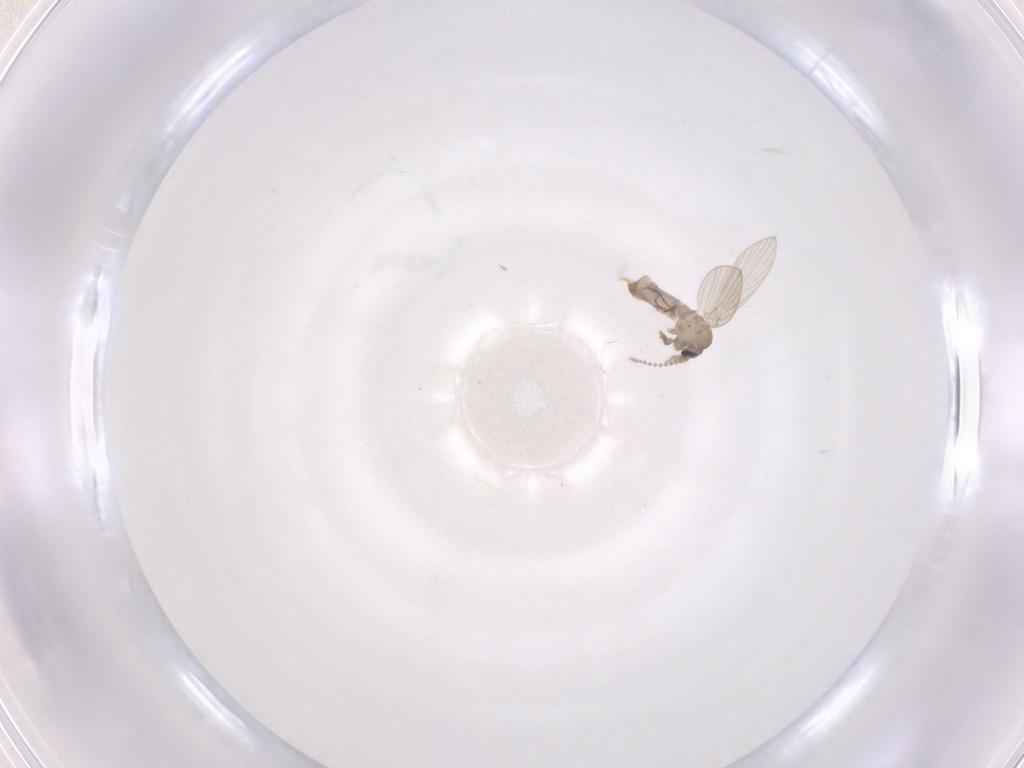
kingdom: Animalia
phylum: Arthropoda
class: Insecta
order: Diptera
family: Psychodidae
